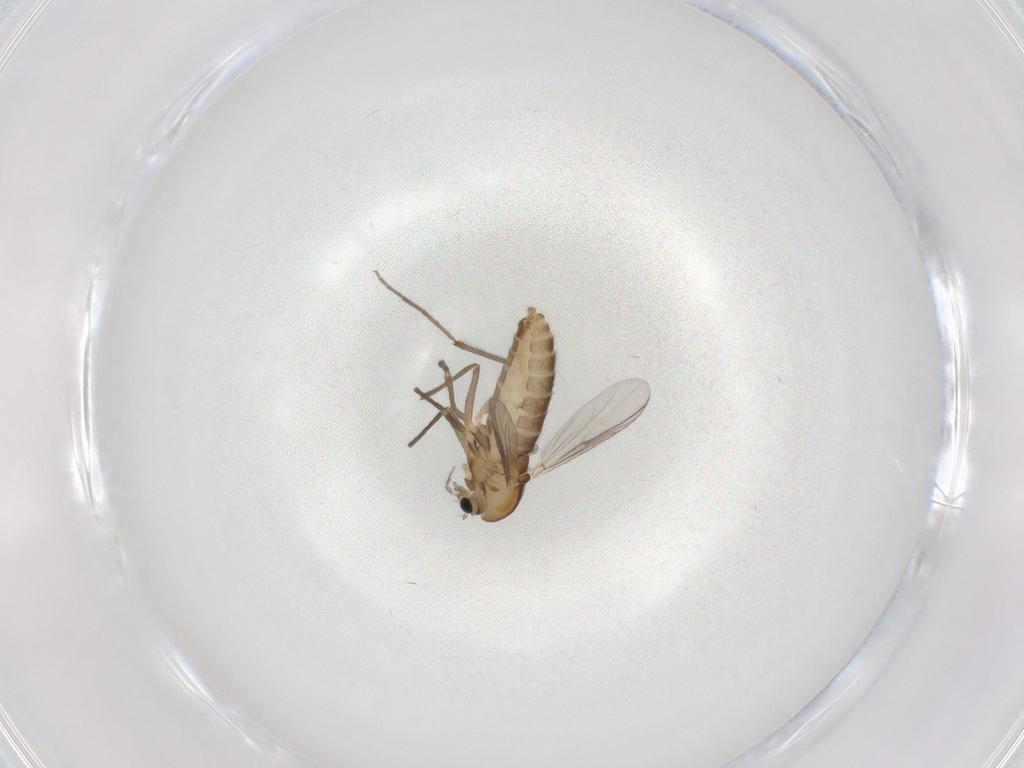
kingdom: Animalia
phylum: Arthropoda
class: Insecta
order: Diptera
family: Chironomidae
